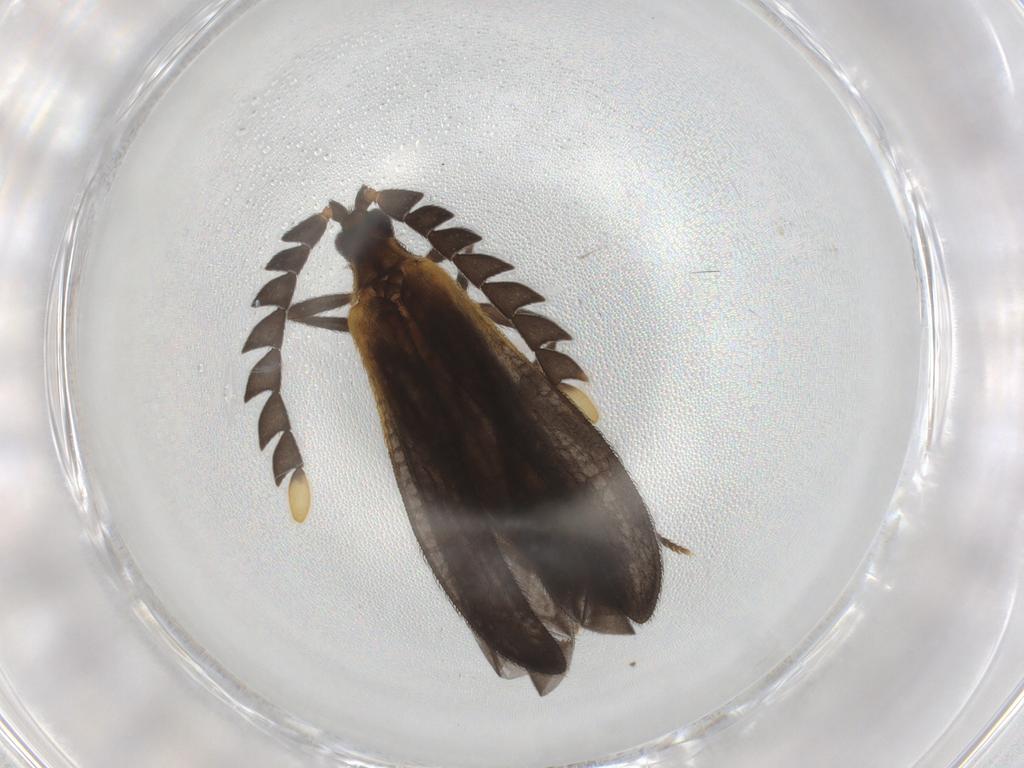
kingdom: Animalia
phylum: Arthropoda
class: Insecta
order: Coleoptera
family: Lycidae
